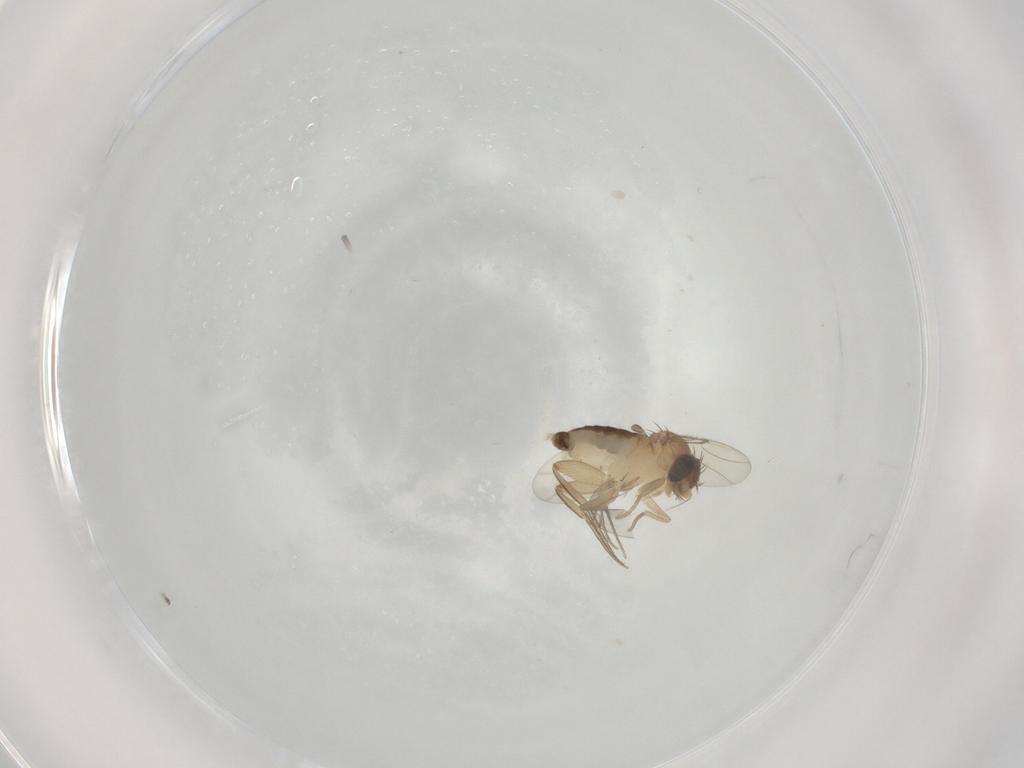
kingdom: Animalia
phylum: Arthropoda
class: Insecta
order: Diptera
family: Phoridae
